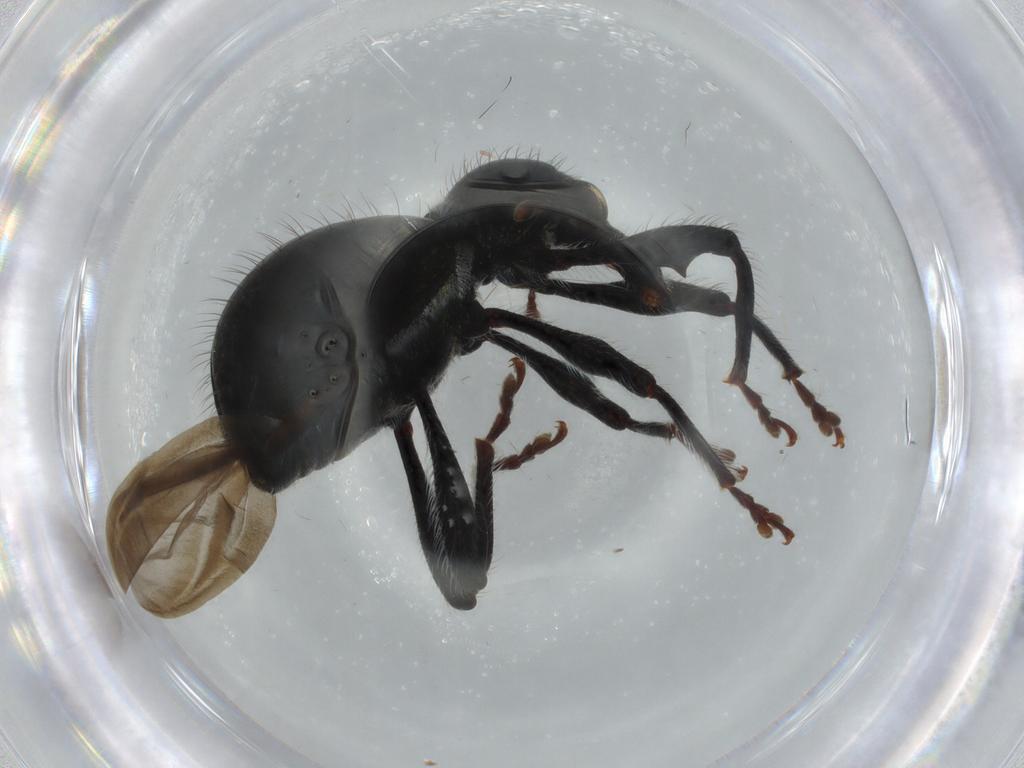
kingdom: Animalia
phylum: Arthropoda
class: Insecta
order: Coleoptera
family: Curculionidae
